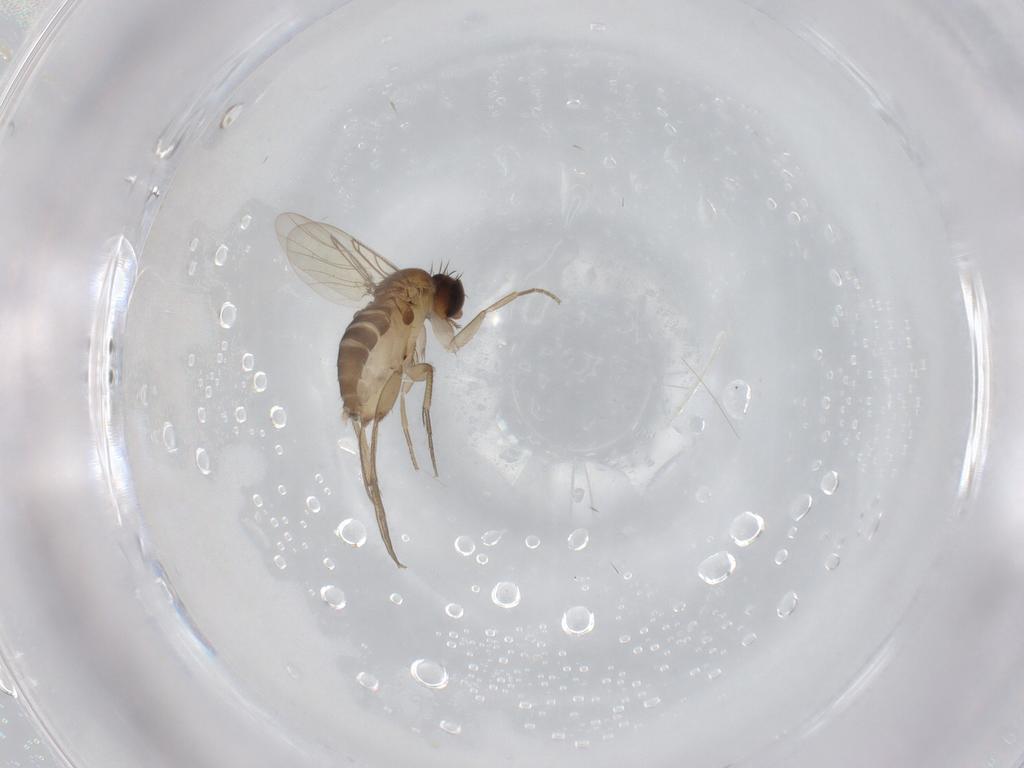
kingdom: Animalia
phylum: Arthropoda
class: Insecta
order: Diptera
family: Phoridae
